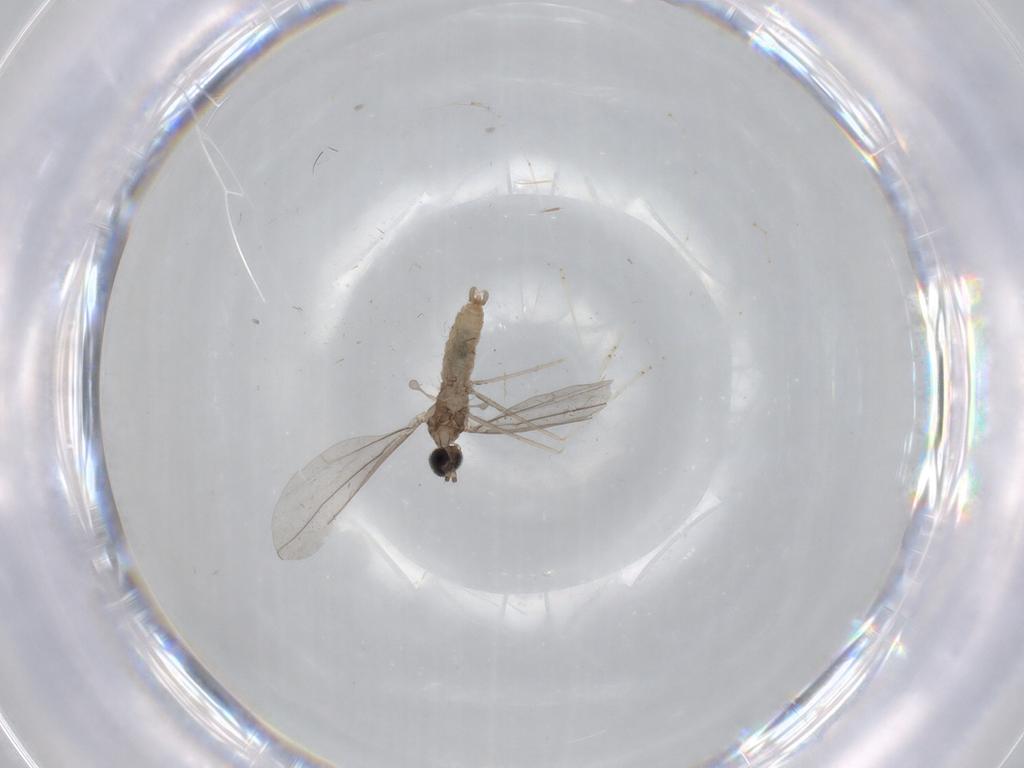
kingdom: Animalia
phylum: Arthropoda
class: Insecta
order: Diptera
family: Cecidomyiidae
